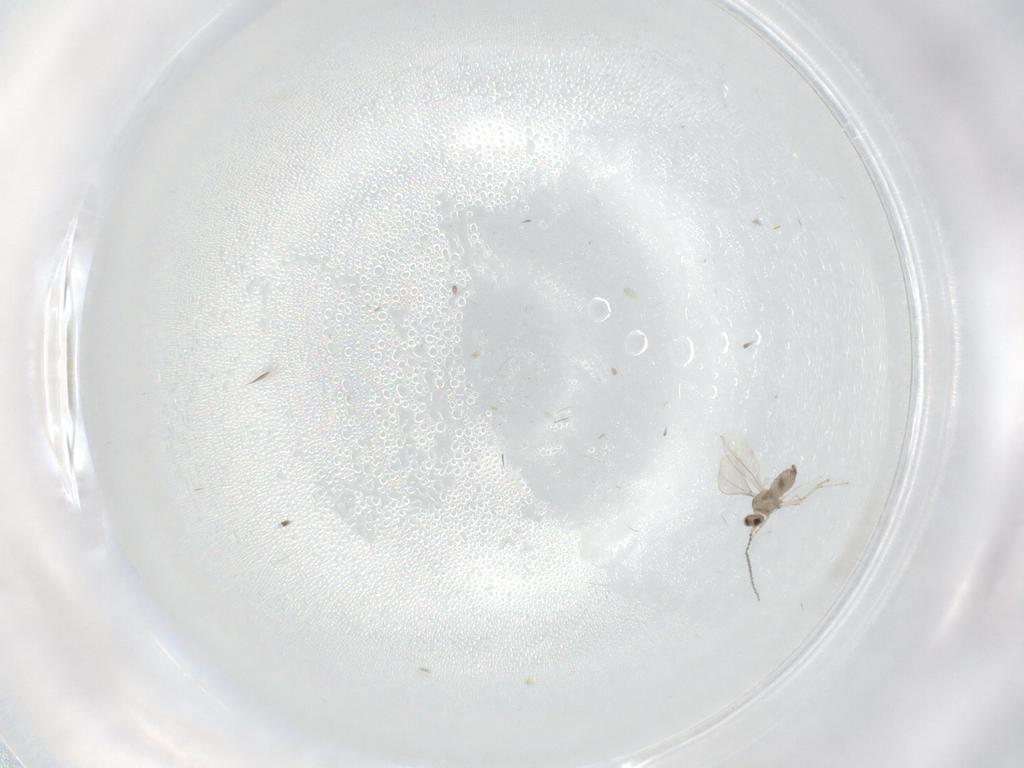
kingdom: Animalia
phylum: Arthropoda
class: Insecta
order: Diptera
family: Cecidomyiidae
